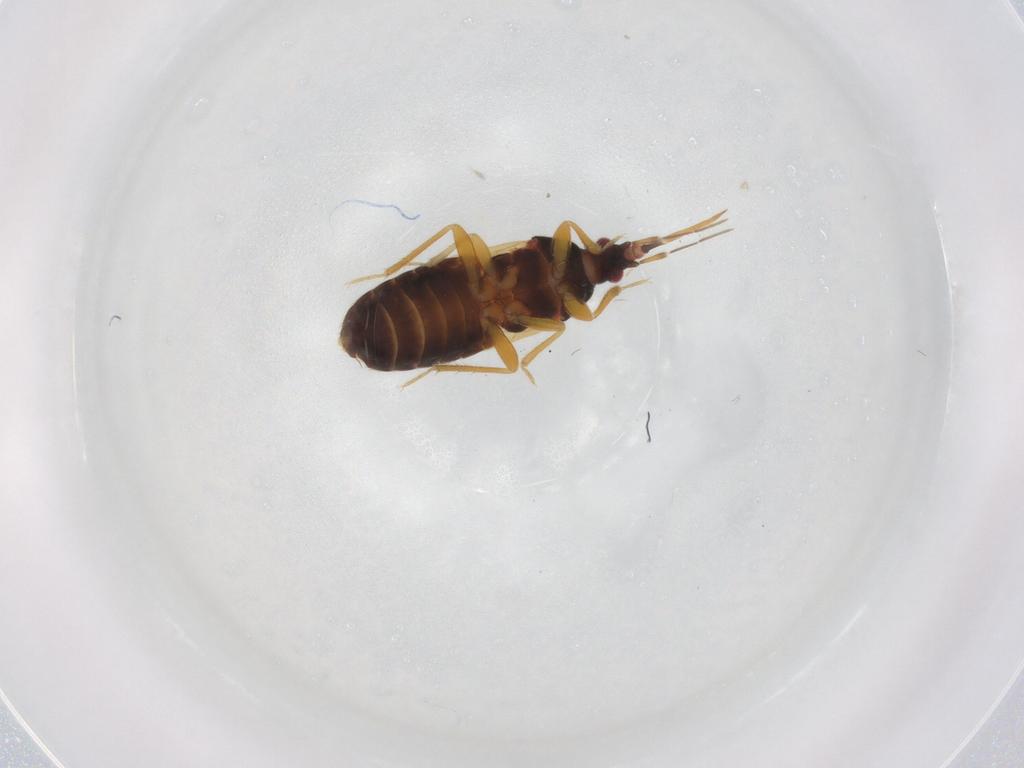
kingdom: Animalia
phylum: Arthropoda
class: Insecta
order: Hemiptera
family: Anthocoridae
